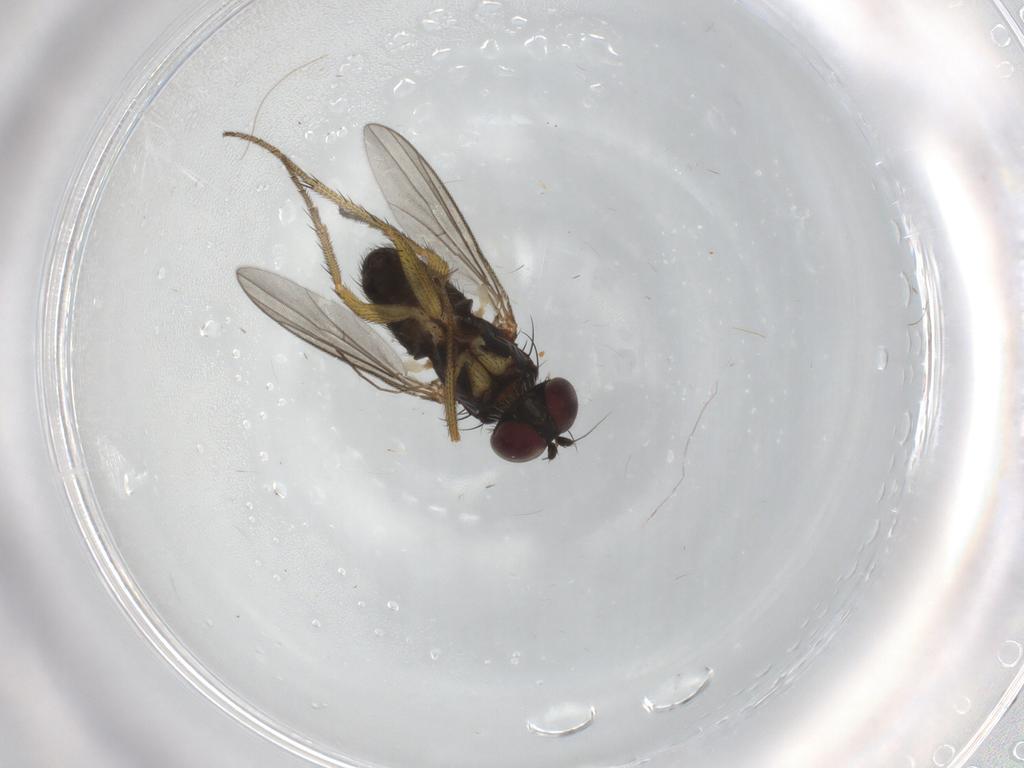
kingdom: Animalia
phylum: Arthropoda
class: Insecta
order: Diptera
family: Chironomidae
